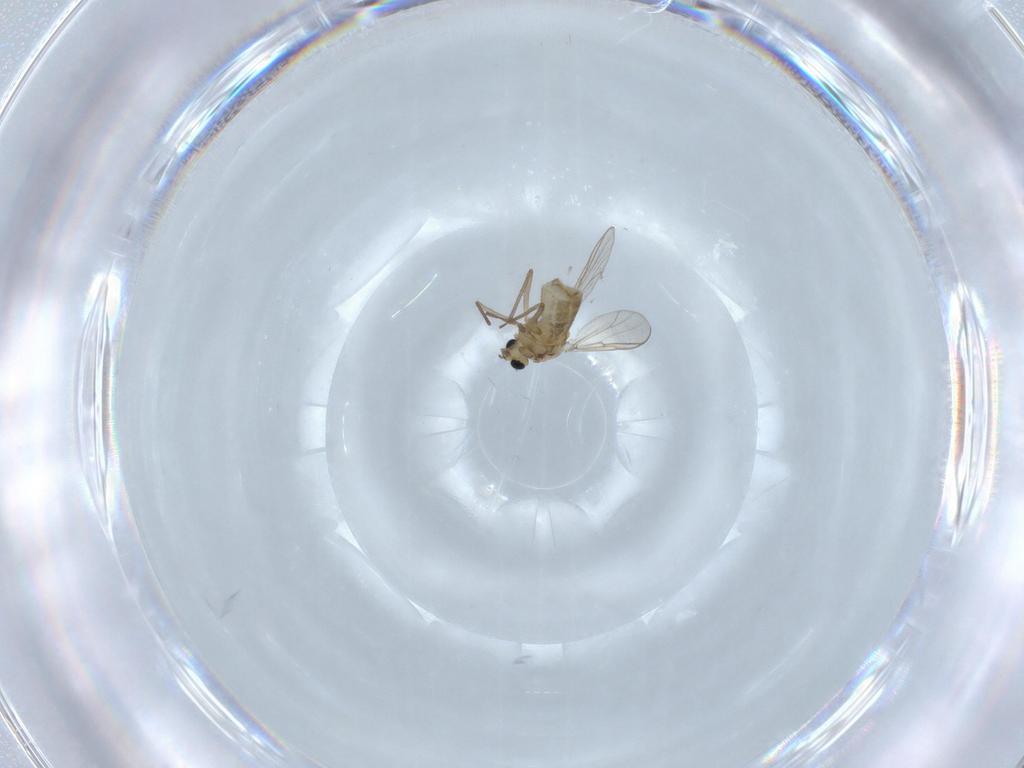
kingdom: Animalia
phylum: Arthropoda
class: Insecta
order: Diptera
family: Chironomidae
